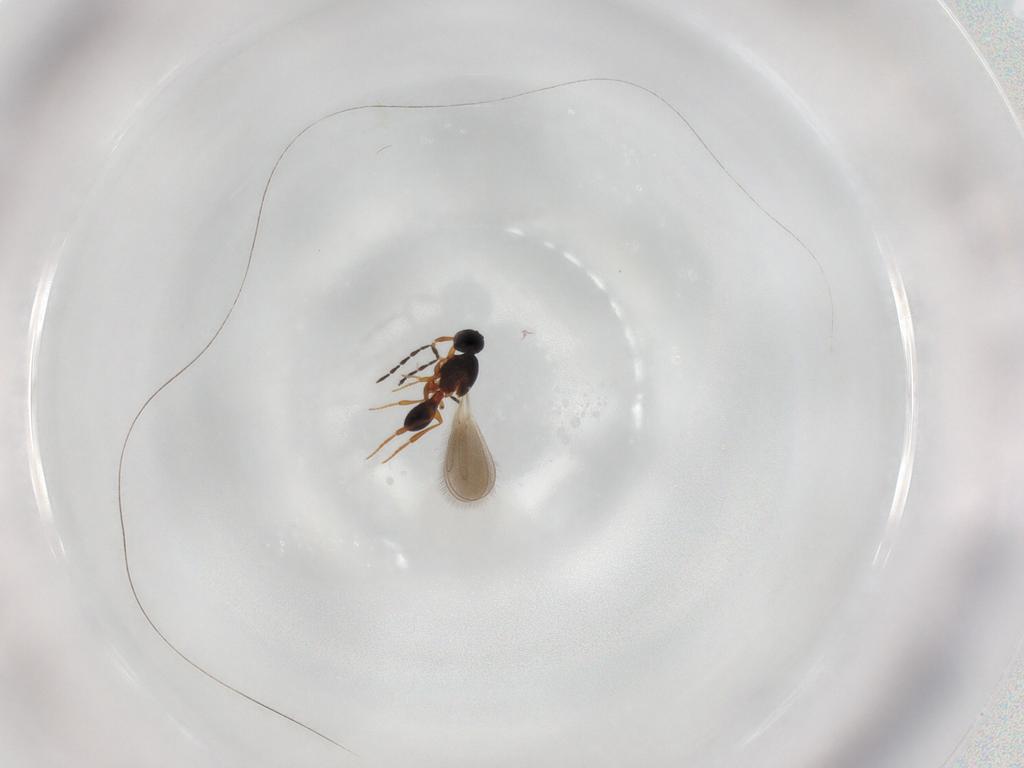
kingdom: Animalia
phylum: Arthropoda
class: Insecta
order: Hymenoptera
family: Platygastridae
